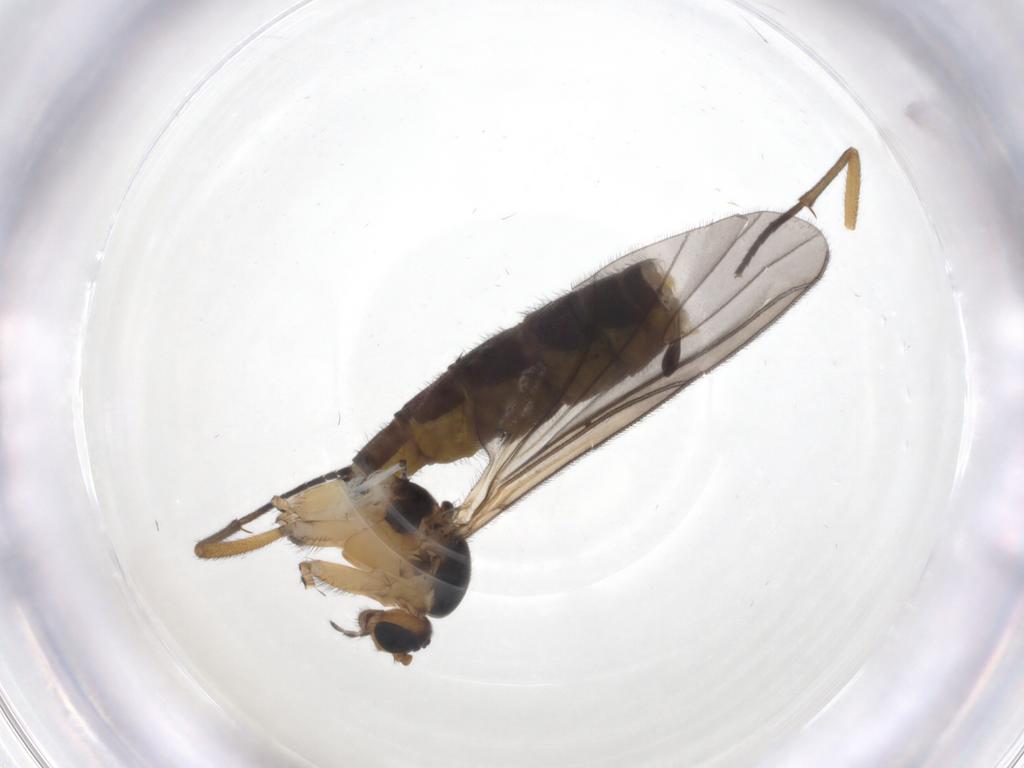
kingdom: Animalia
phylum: Arthropoda
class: Insecta
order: Diptera
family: Sciaridae
